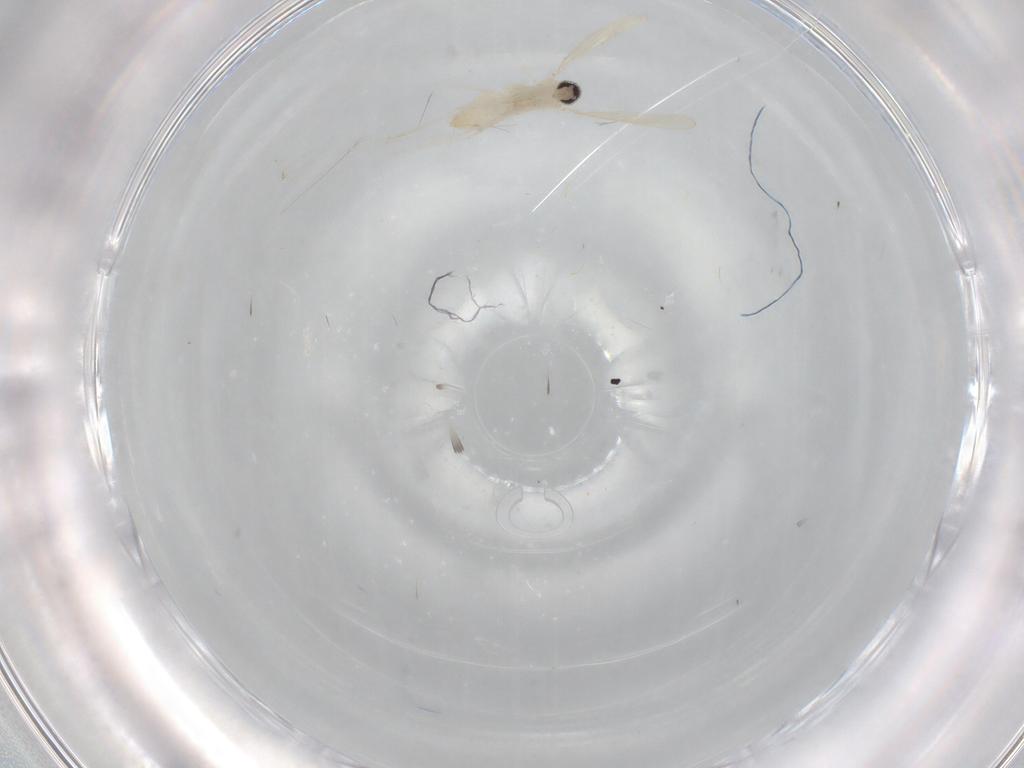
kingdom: Animalia
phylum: Arthropoda
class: Insecta
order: Diptera
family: Cecidomyiidae
